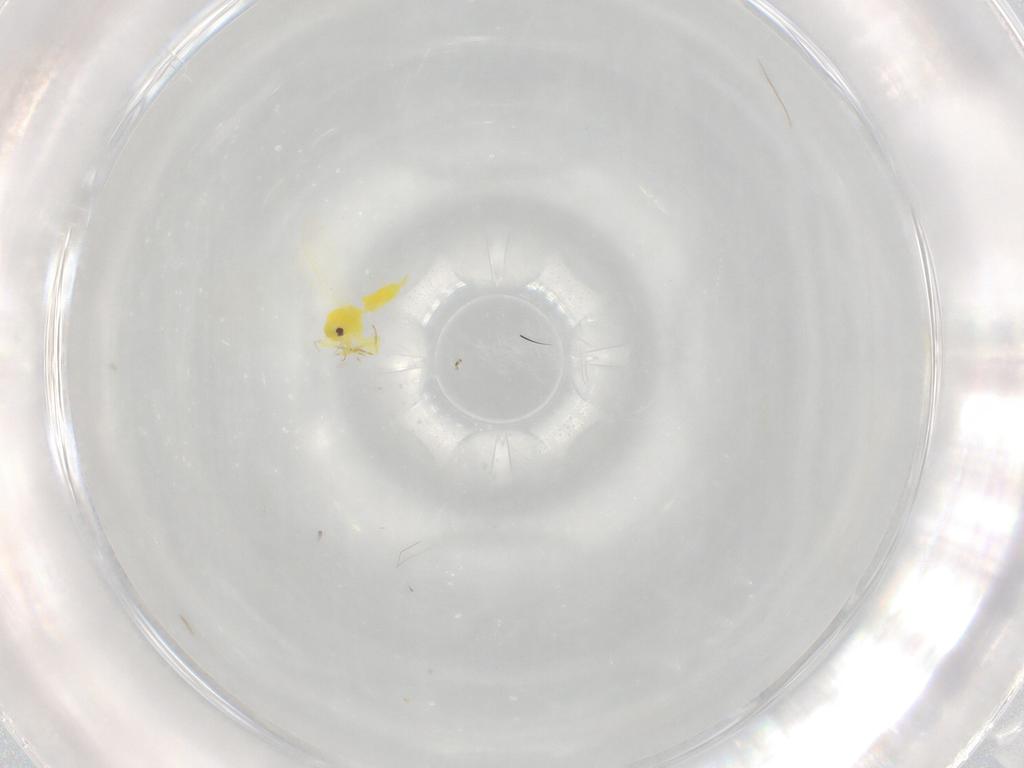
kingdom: Animalia
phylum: Arthropoda
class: Insecta
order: Hemiptera
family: Aleyrodidae
